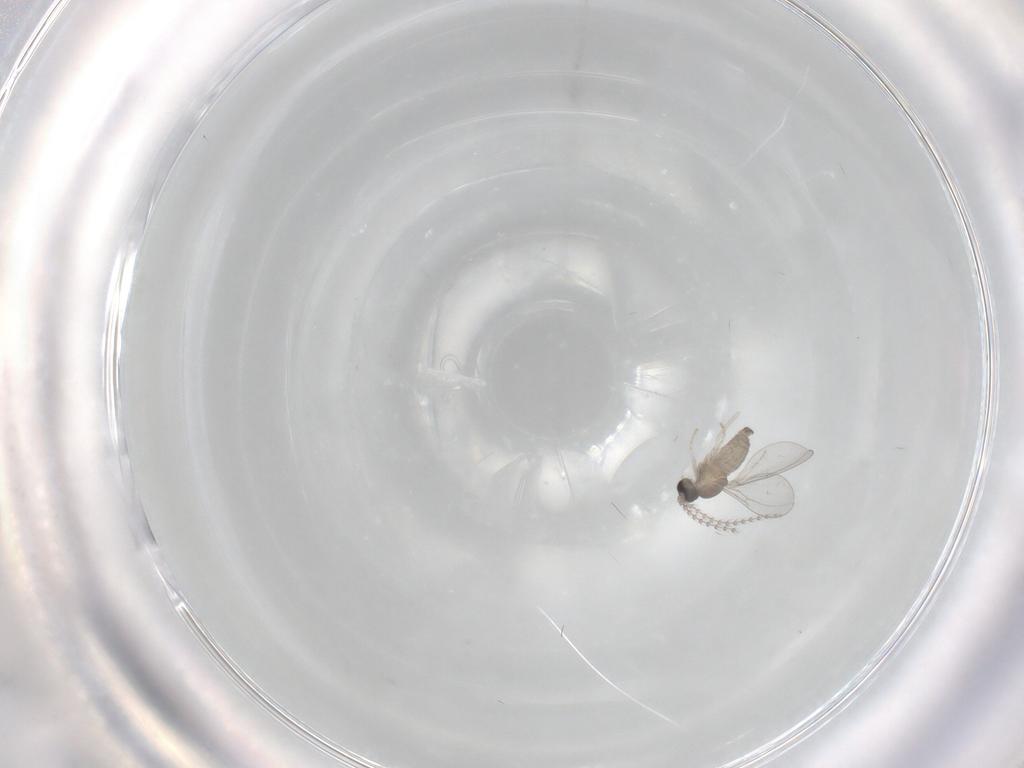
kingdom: Animalia
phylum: Arthropoda
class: Insecta
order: Diptera
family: Cecidomyiidae
